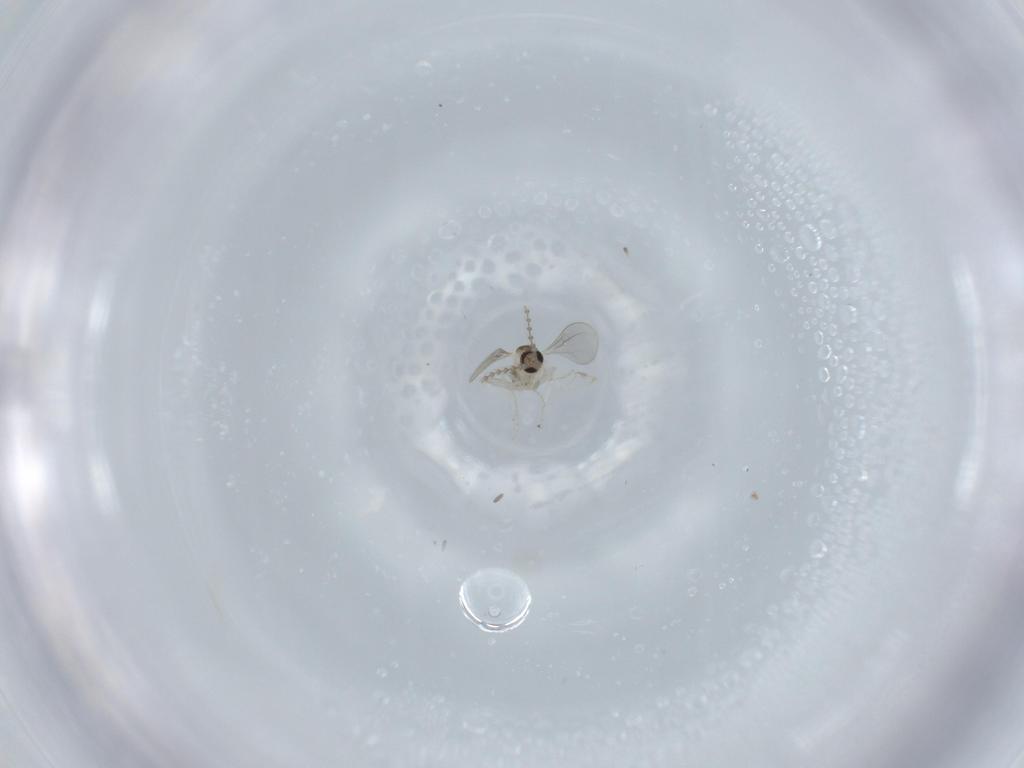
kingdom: Animalia
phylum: Arthropoda
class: Insecta
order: Diptera
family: Cecidomyiidae
